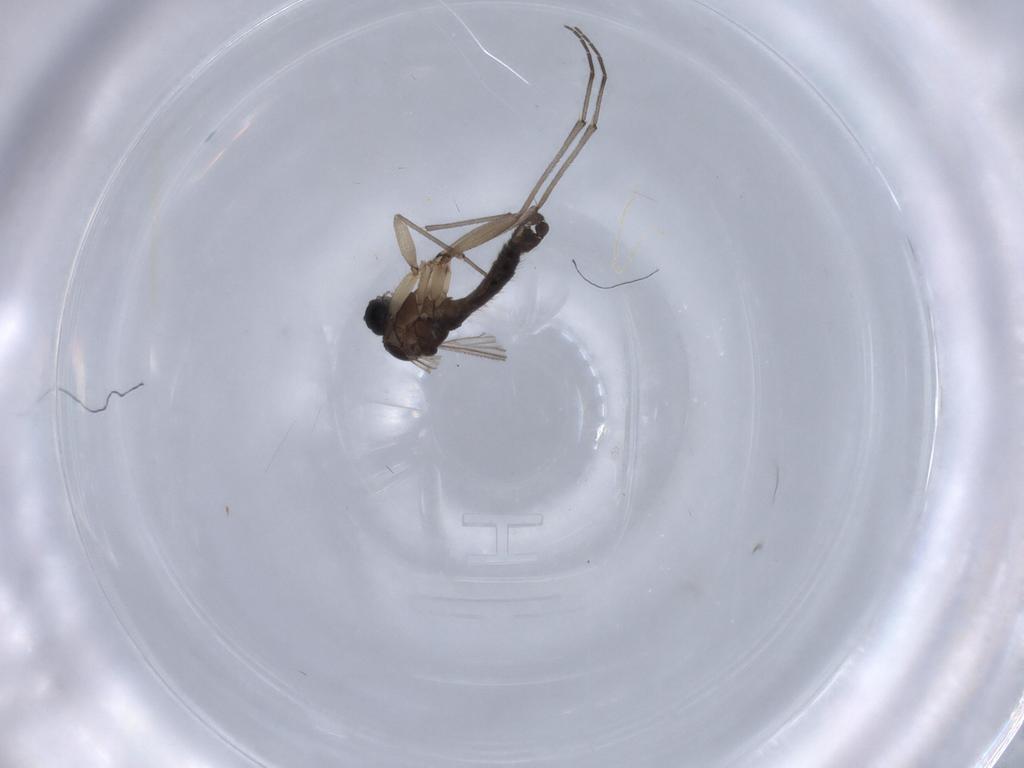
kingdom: Animalia
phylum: Arthropoda
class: Insecta
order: Diptera
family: Sciaridae
